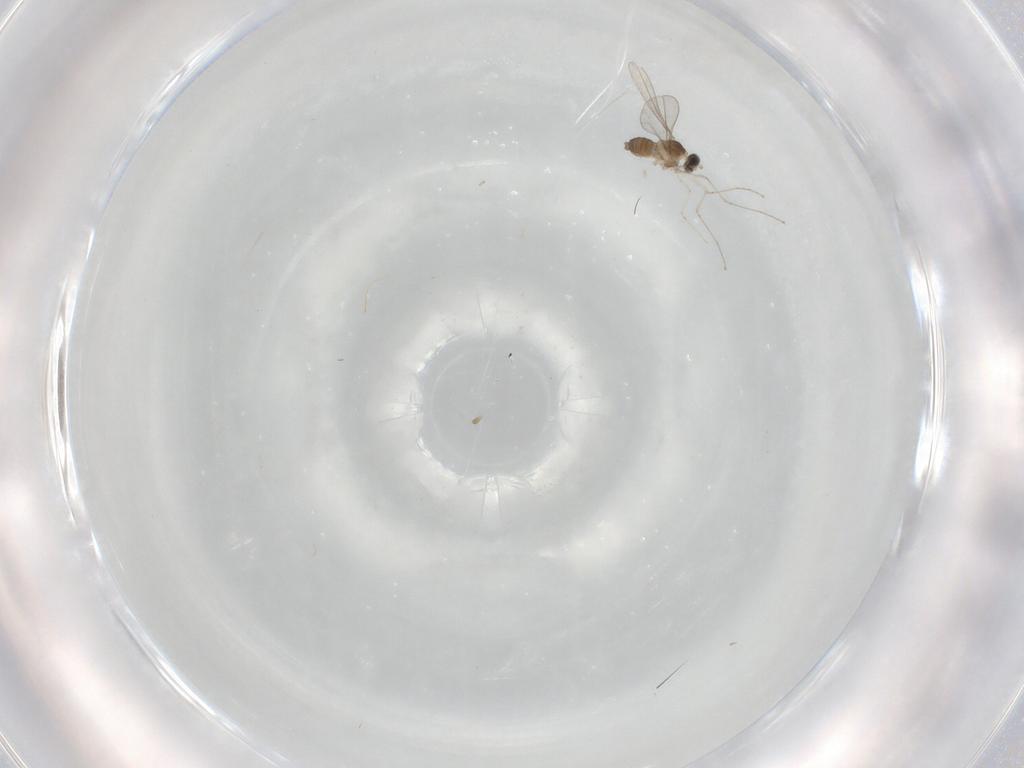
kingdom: Animalia
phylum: Arthropoda
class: Insecta
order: Diptera
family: Cecidomyiidae
